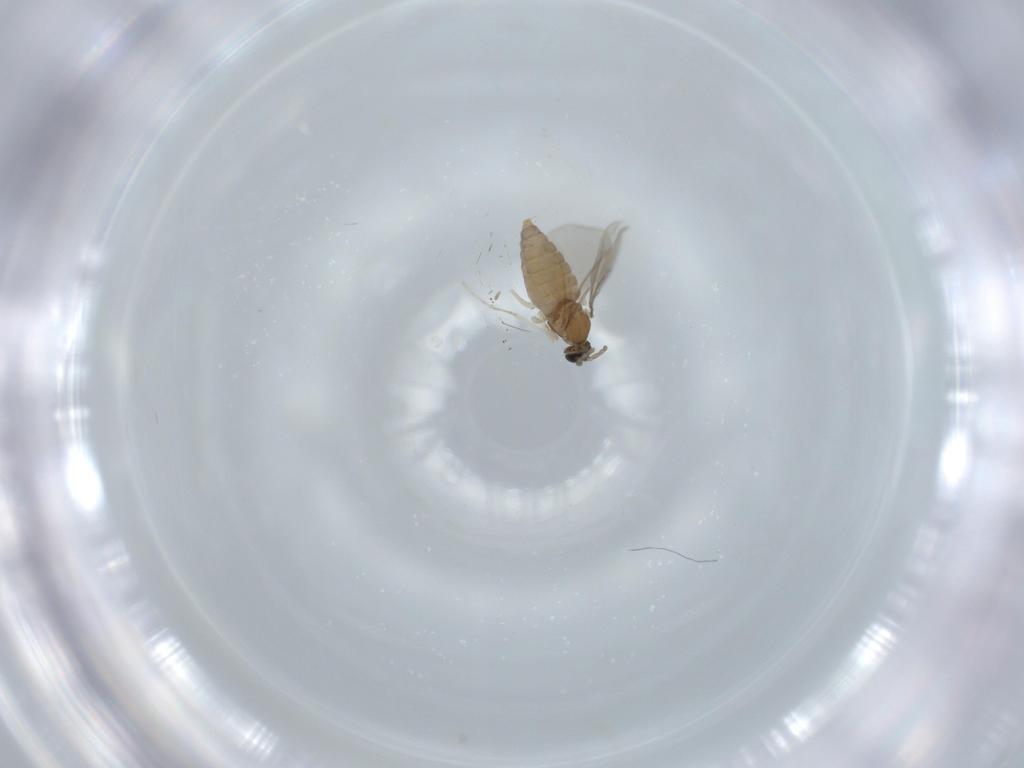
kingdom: Animalia
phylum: Arthropoda
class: Insecta
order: Diptera
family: Cecidomyiidae
